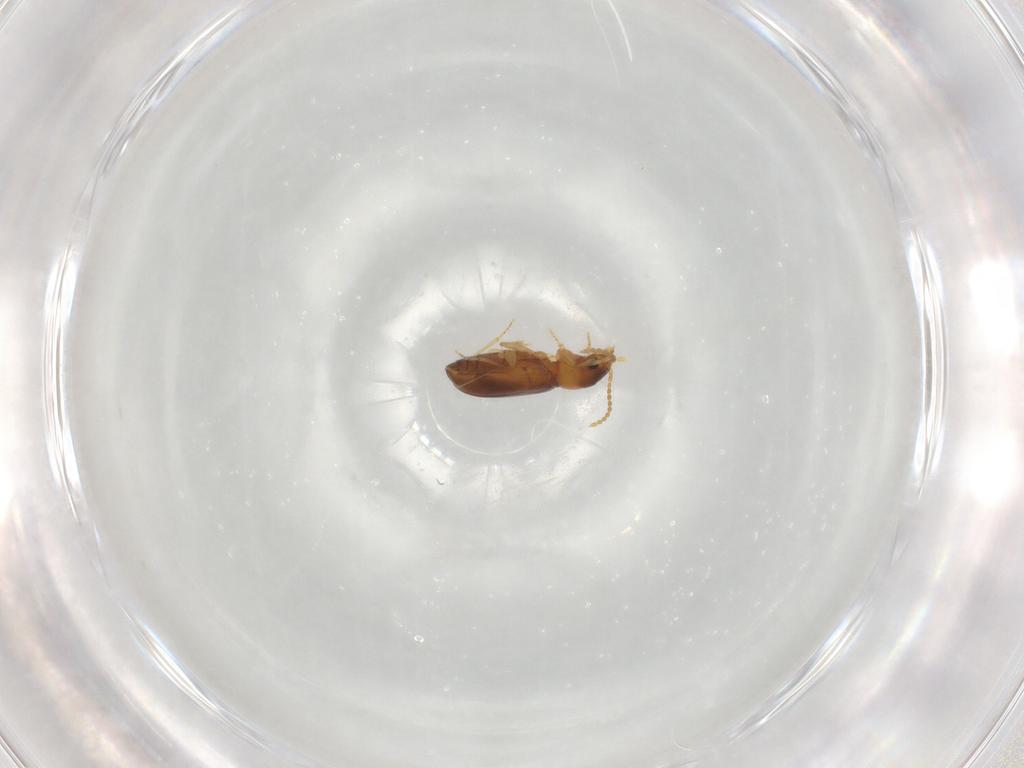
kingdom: Animalia
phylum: Arthropoda
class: Insecta
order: Coleoptera
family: Carabidae
